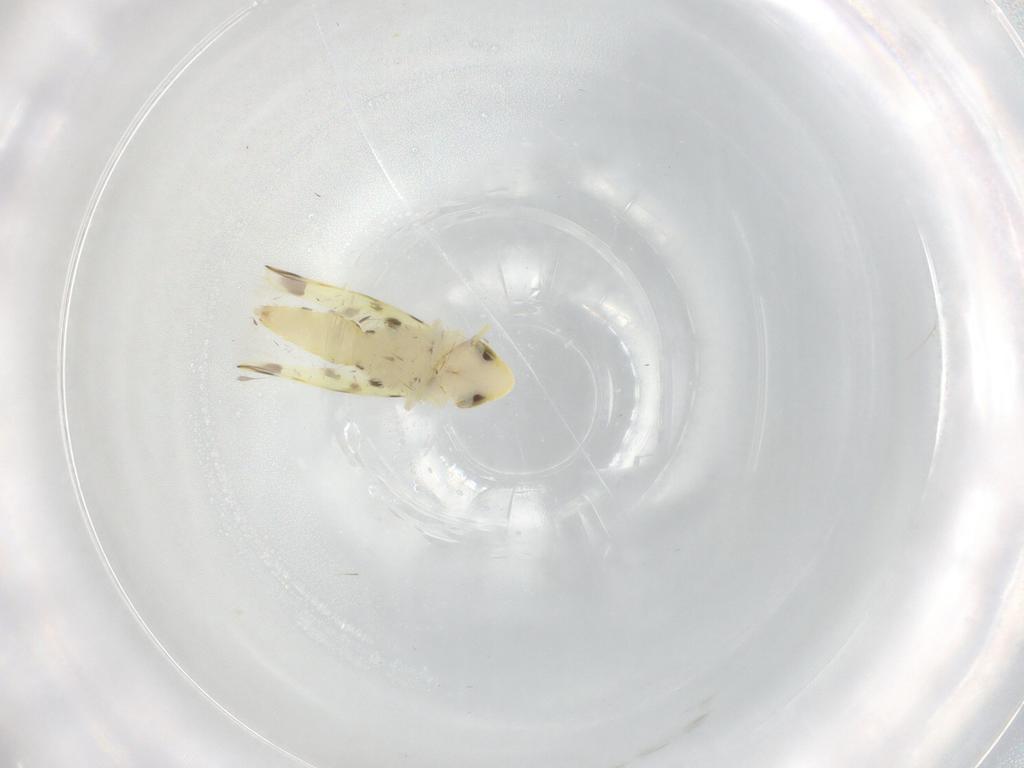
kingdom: Animalia
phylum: Arthropoda
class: Insecta
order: Hemiptera
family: Cicadellidae
